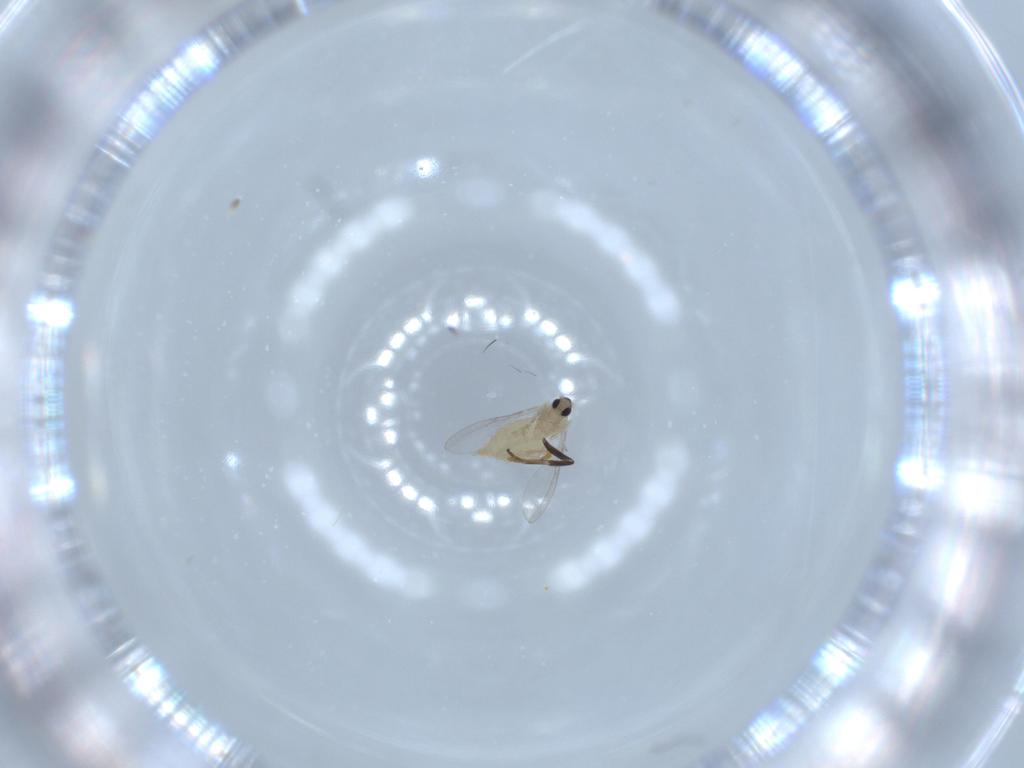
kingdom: Animalia
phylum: Arthropoda
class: Insecta
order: Diptera
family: Cecidomyiidae
